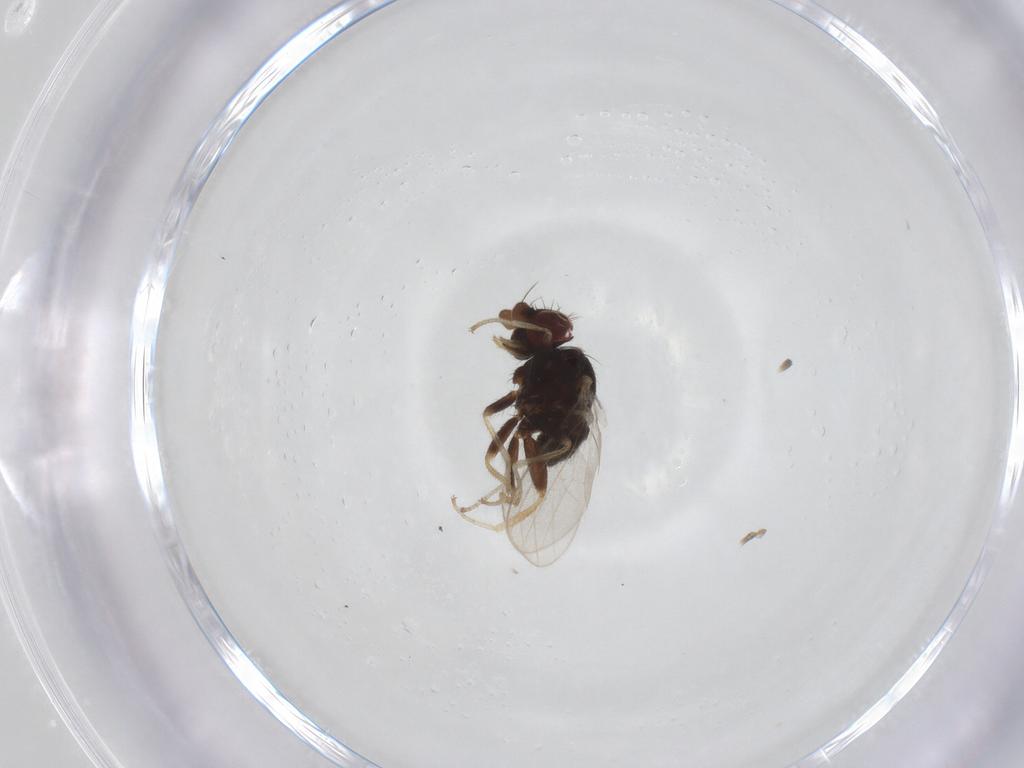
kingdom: Animalia
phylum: Arthropoda
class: Insecta
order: Diptera
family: Milichiidae
